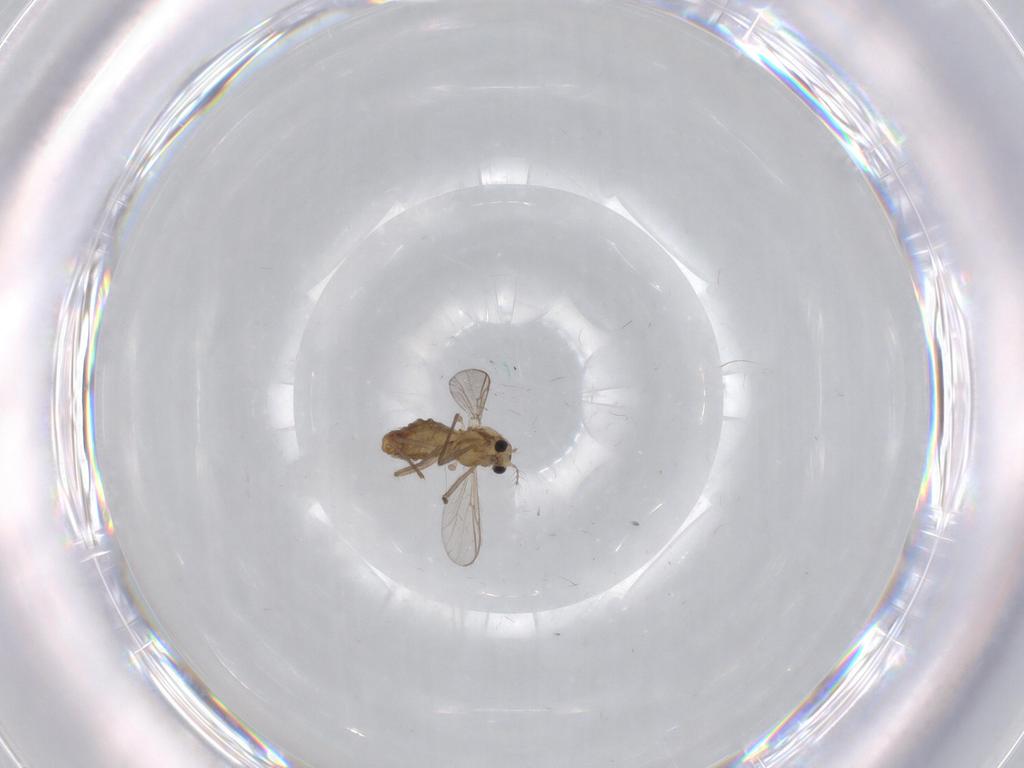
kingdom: Animalia
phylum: Arthropoda
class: Insecta
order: Diptera
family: Chironomidae
